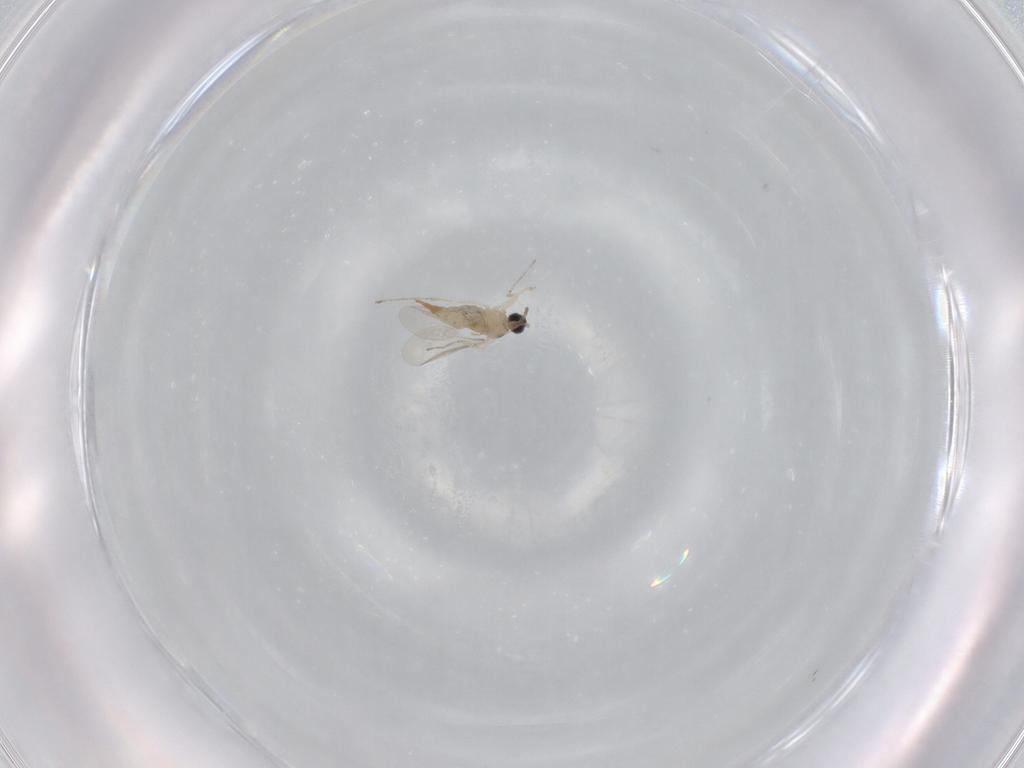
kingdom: Animalia
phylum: Arthropoda
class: Insecta
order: Diptera
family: Cecidomyiidae
